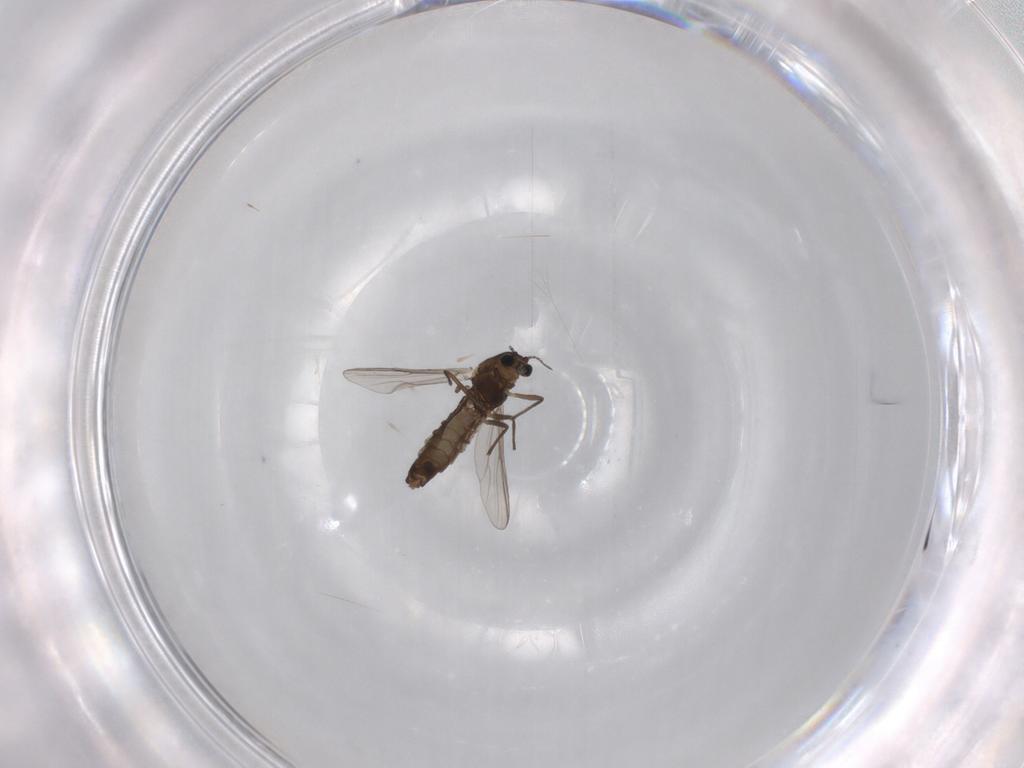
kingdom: Animalia
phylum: Arthropoda
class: Insecta
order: Diptera
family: Chironomidae
